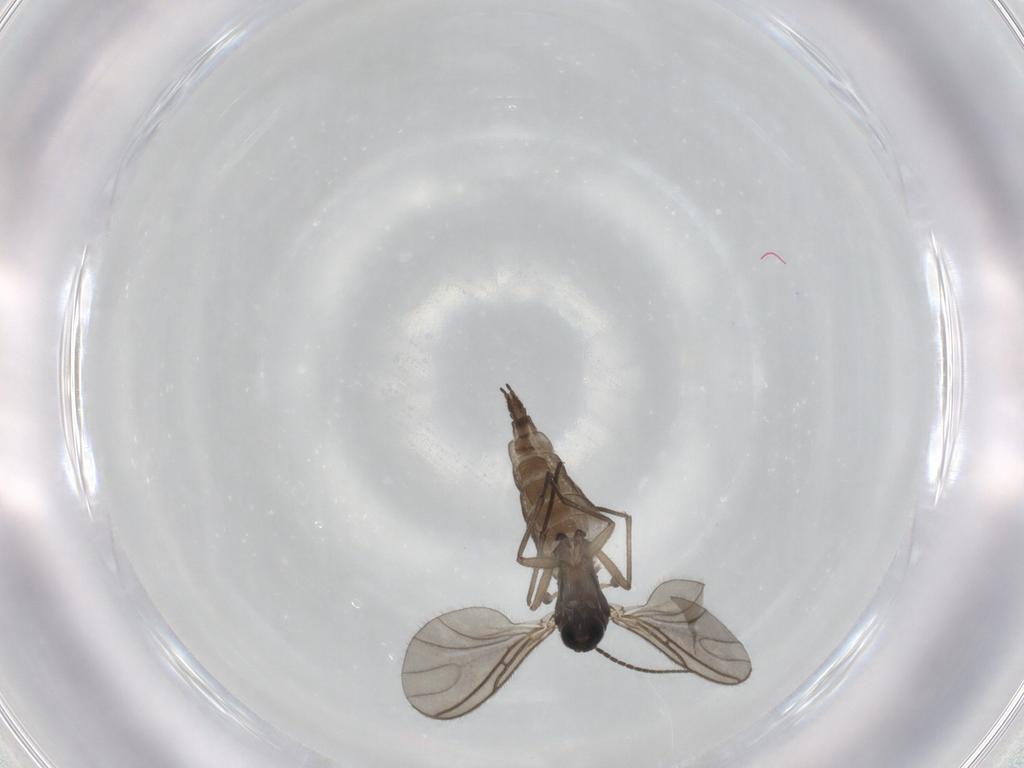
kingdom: Animalia
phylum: Arthropoda
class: Insecta
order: Diptera
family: Sciaridae
